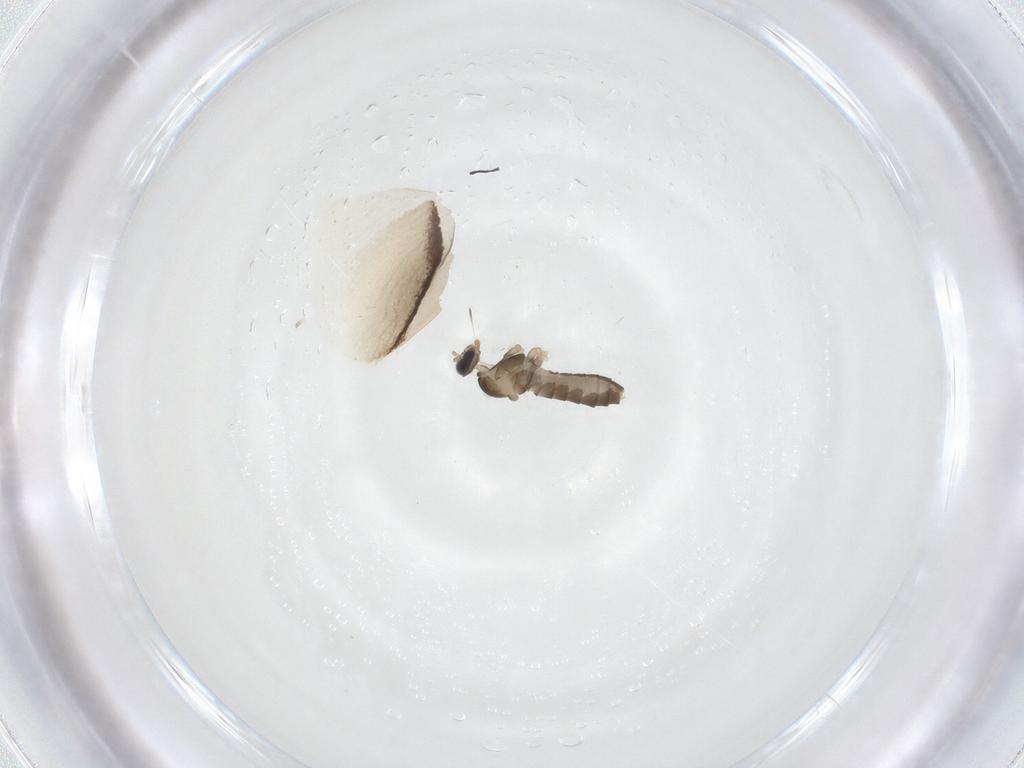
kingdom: Animalia
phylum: Arthropoda
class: Insecta
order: Diptera
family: Cecidomyiidae
